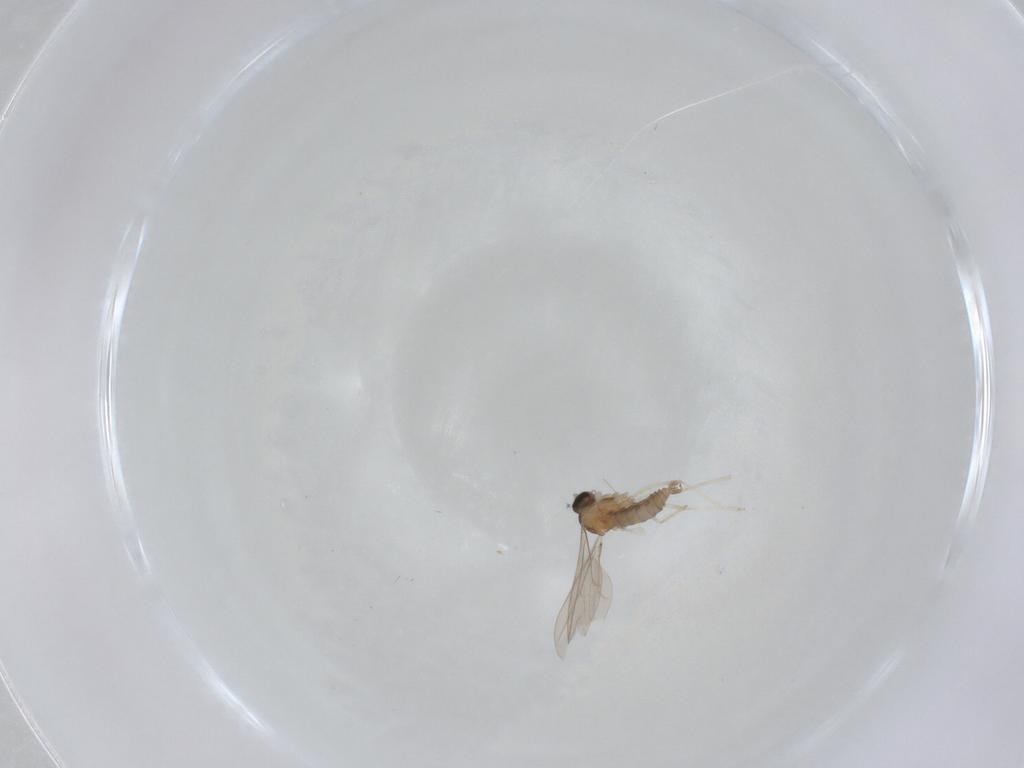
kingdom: Animalia
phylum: Arthropoda
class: Insecta
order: Diptera
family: Cecidomyiidae
